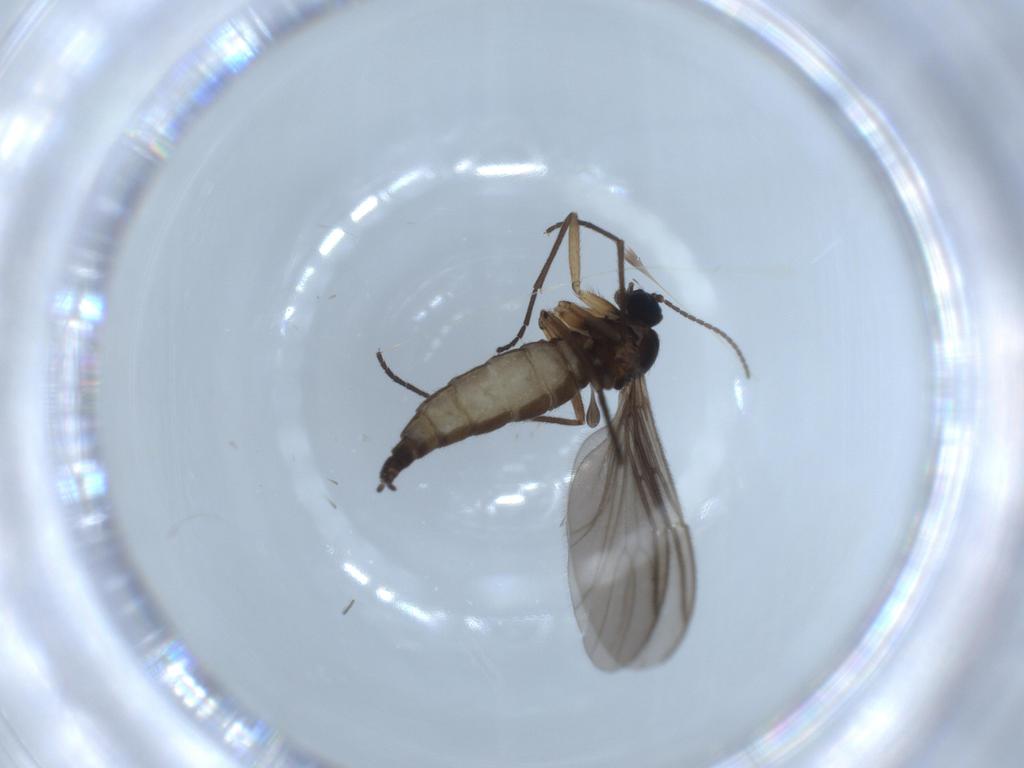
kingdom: Animalia
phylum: Arthropoda
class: Insecta
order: Diptera
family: Sciaridae
